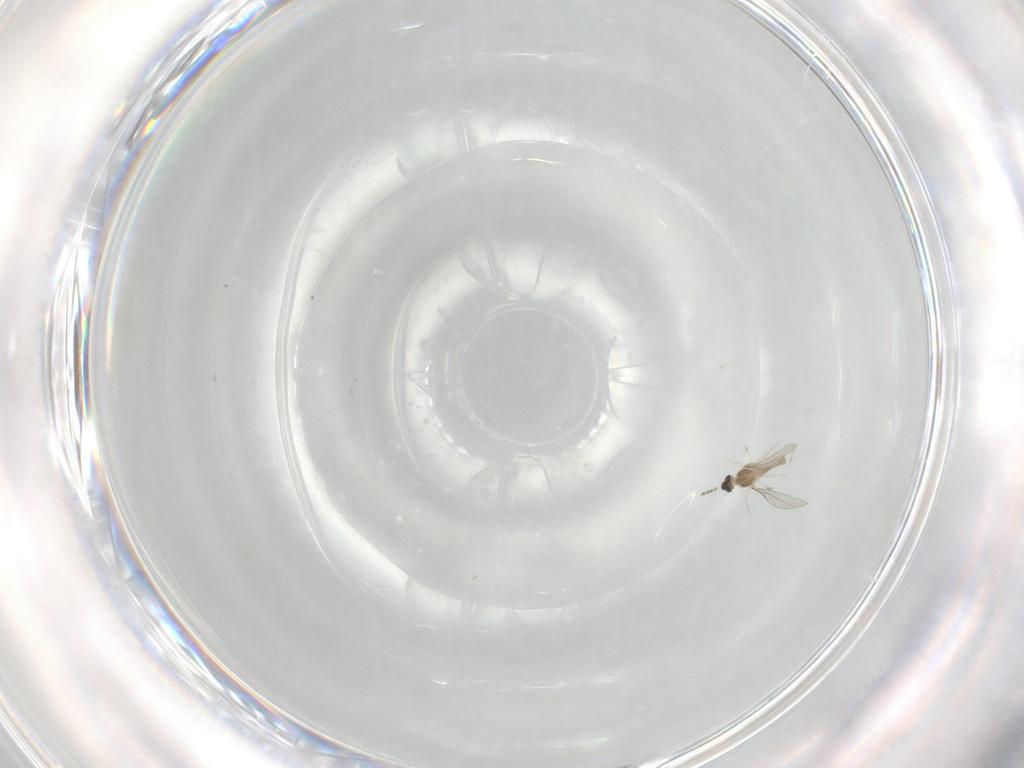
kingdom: Animalia
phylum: Arthropoda
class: Insecta
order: Diptera
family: Cecidomyiidae
